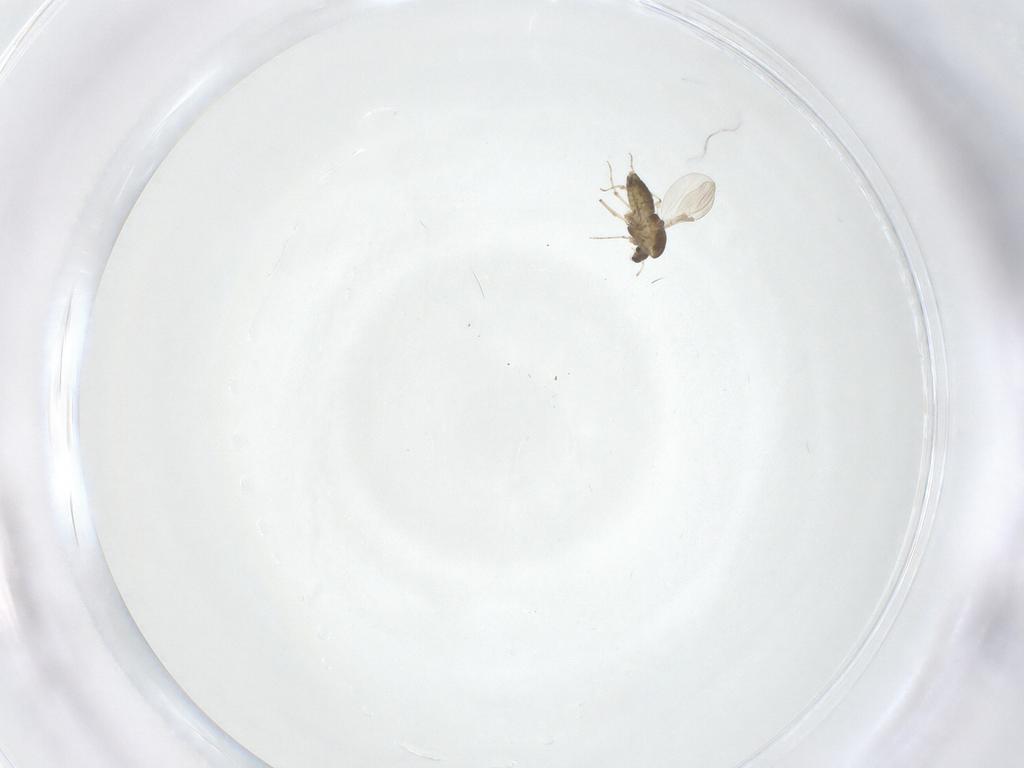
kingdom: Animalia
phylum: Arthropoda
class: Insecta
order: Diptera
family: Chironomidae
